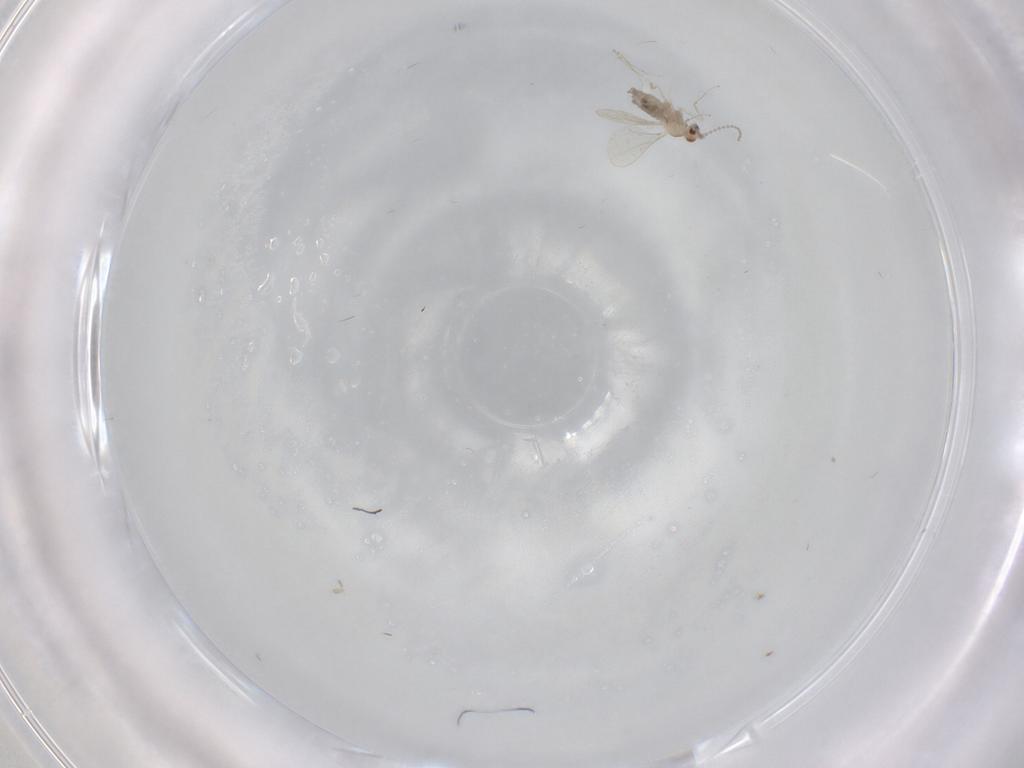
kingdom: Animalia
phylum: Arthropoda
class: Insecta
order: Diptera
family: Cecidomyiidae
